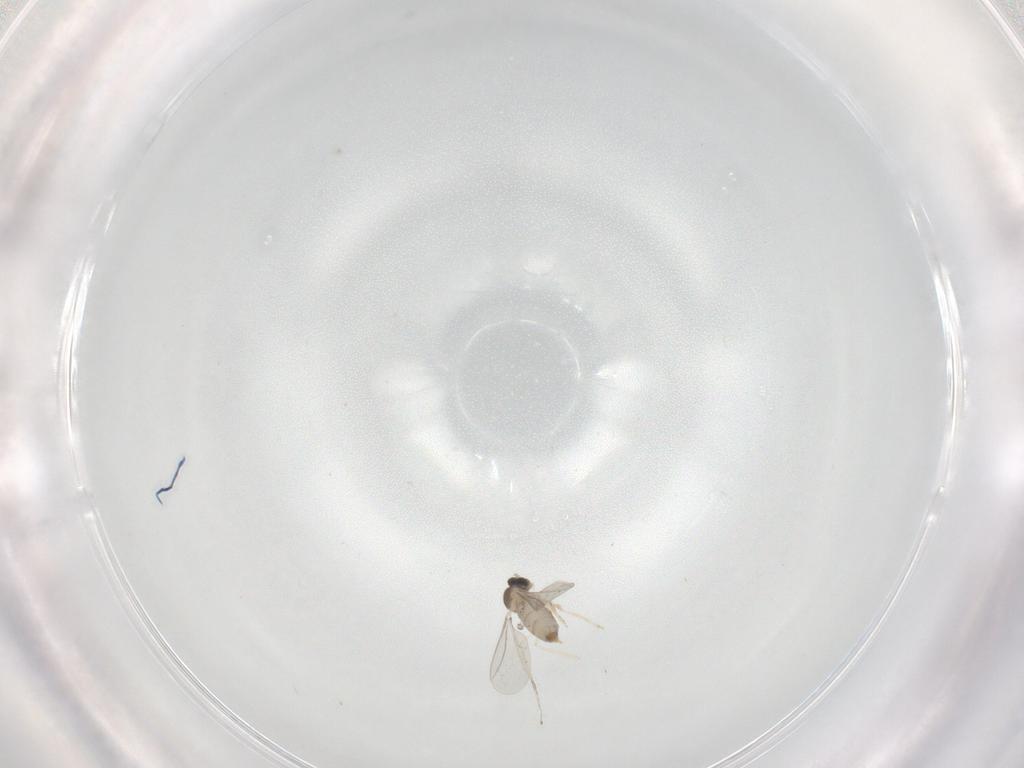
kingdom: Animalia
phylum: Arthropoda
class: Insecta
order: Diptera
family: Cecidomyiidae
